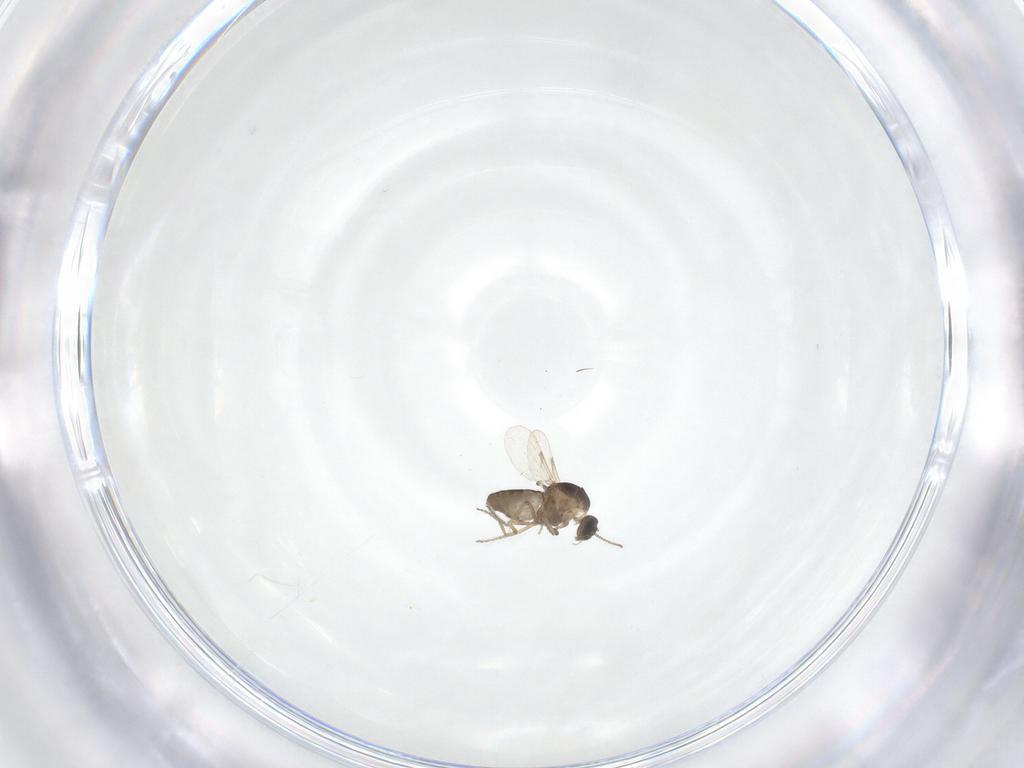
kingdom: Animalia
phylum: Arthropoda
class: Insecta
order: Diptera
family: Ceratopogonidae
